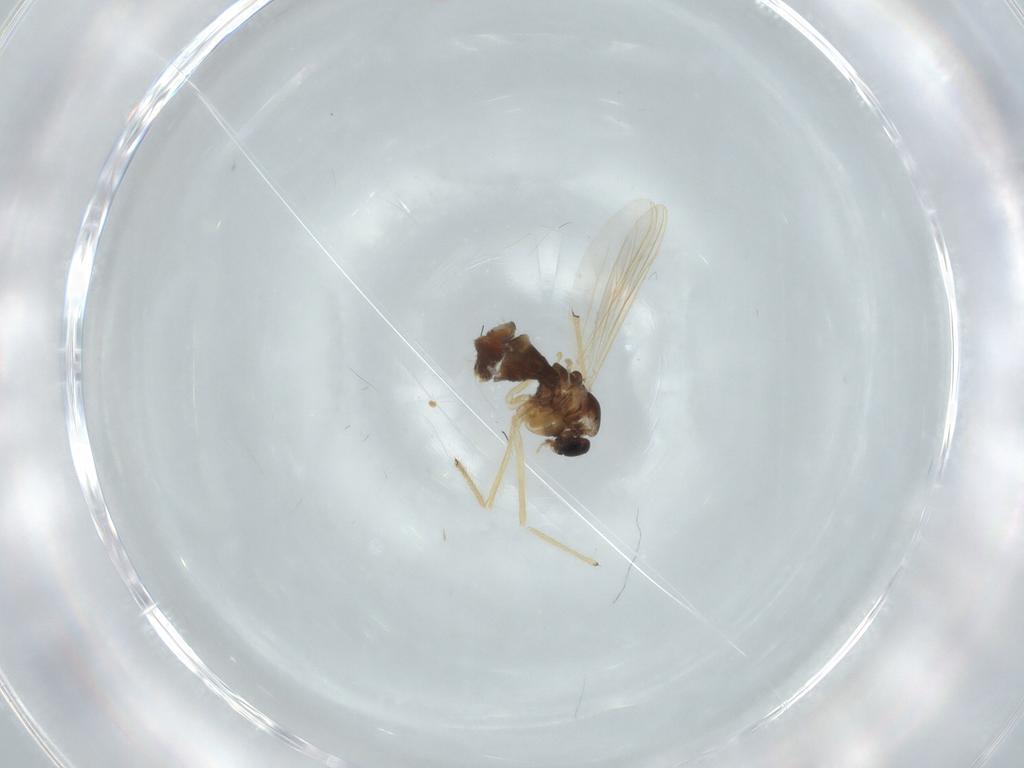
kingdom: Animalia
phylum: Arthropoda
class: Insecta
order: Diptera
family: Chironomidae
